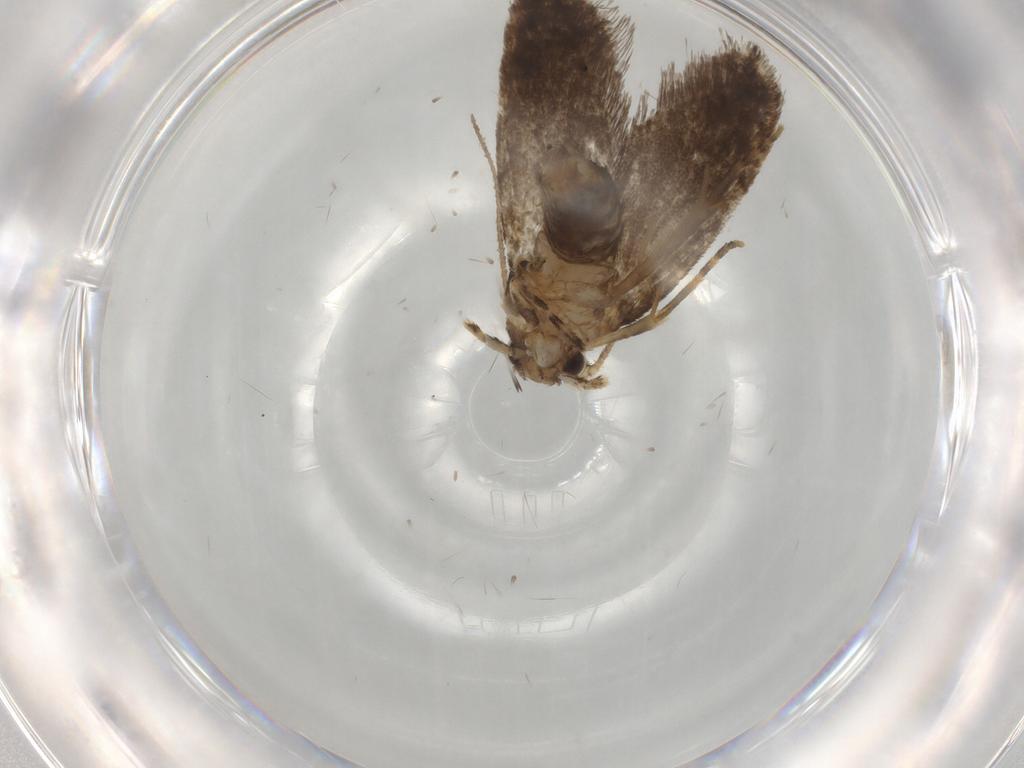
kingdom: Animalia
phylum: Arthropoda
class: Insecta
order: Lepidoptera
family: Dryadaulidae
